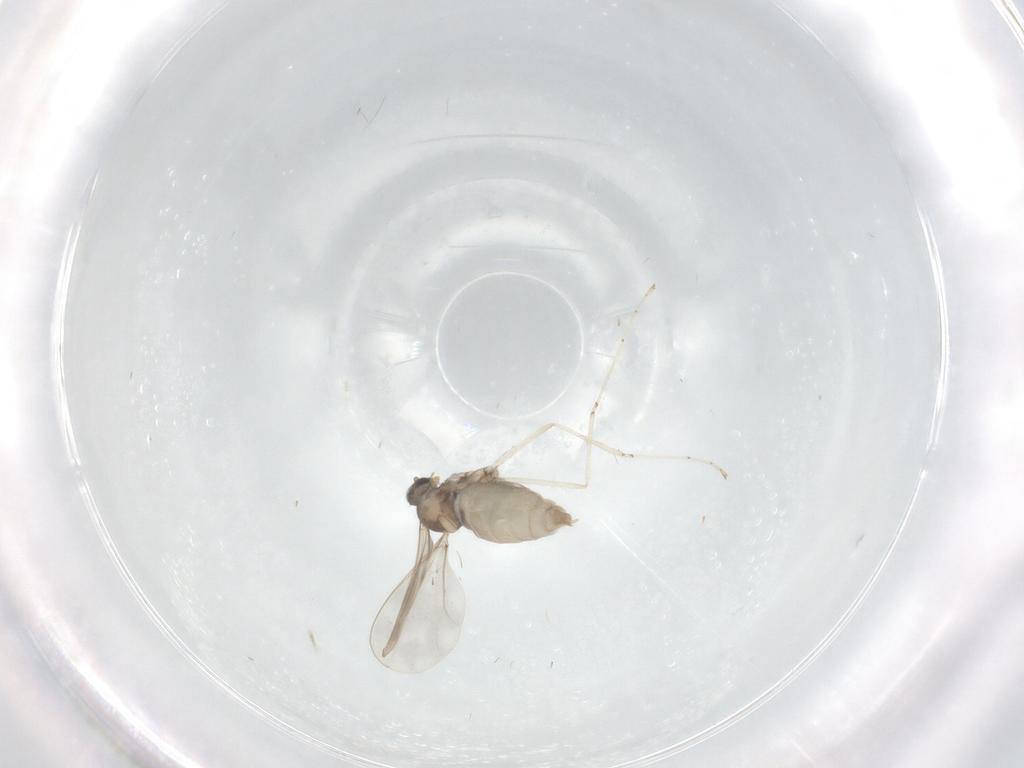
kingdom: Animalia
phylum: Arthropoda
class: Insecta
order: Diptera
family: Cecidomyiidae
